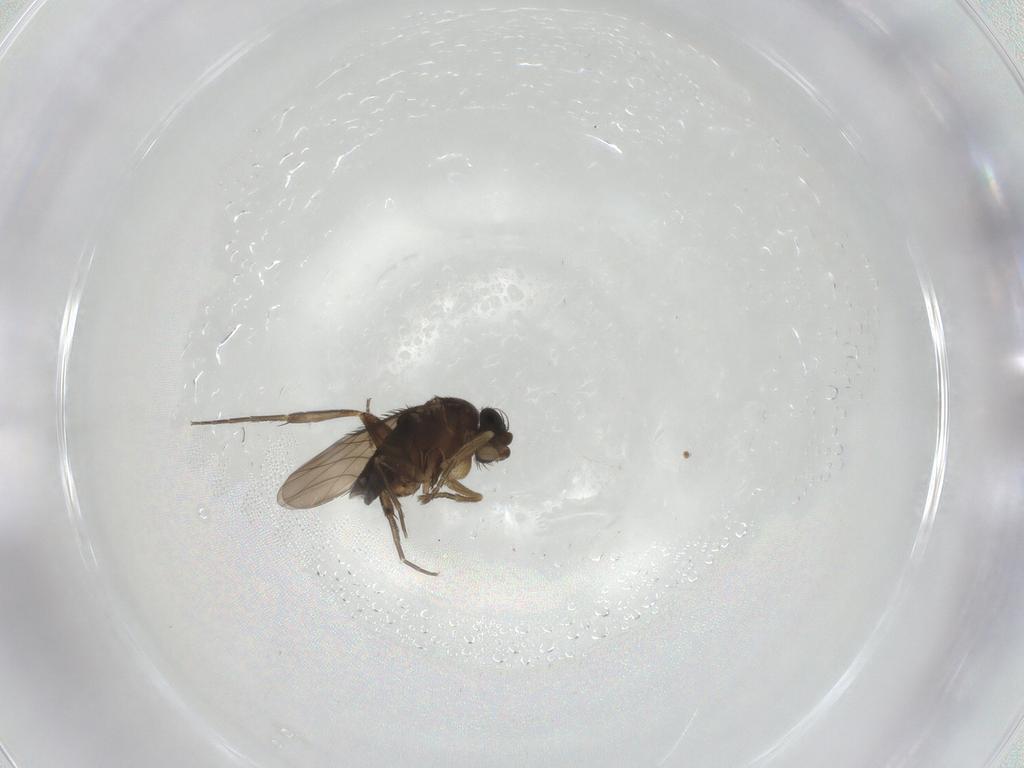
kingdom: Animalia
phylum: Arthropoda
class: Insecta
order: Diptera
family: Phoridae
